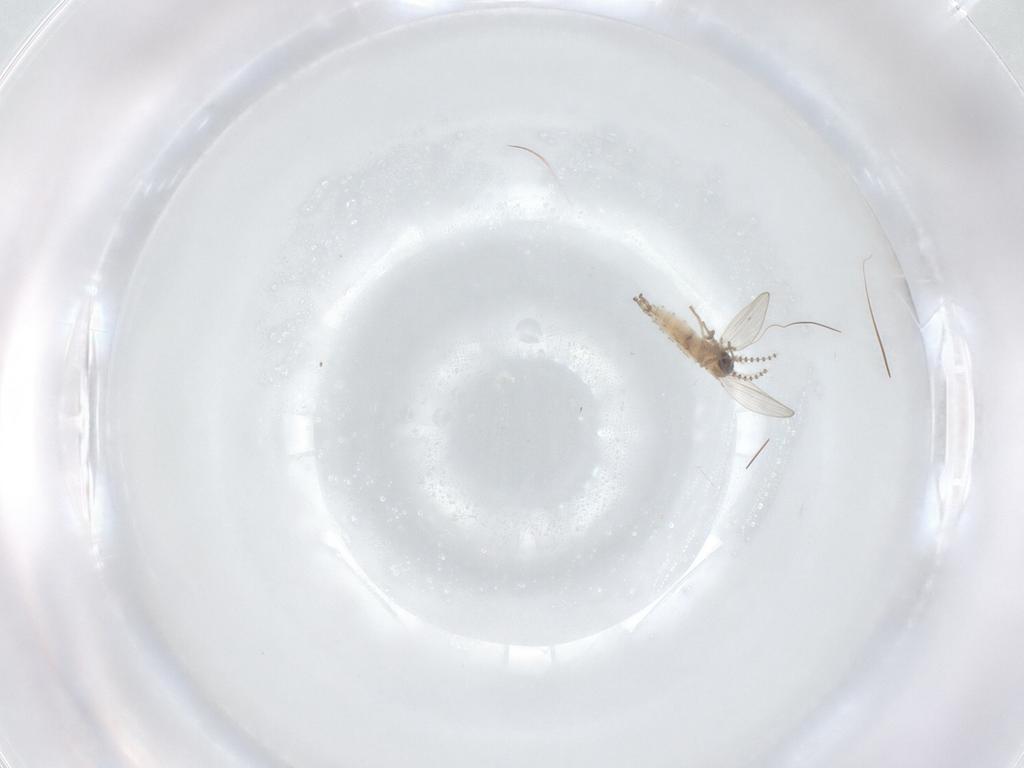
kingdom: Animalia
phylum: Arthropoda
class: Insecta
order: Diptera
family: Psychodidae
